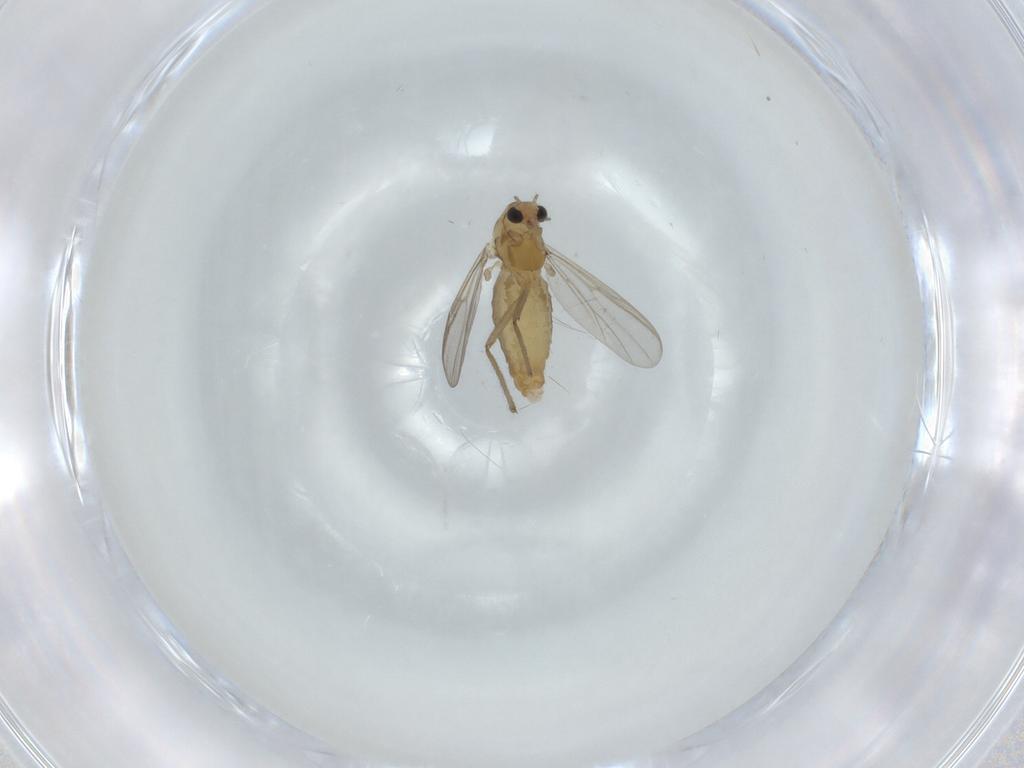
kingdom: Animalia
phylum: Arthropoda
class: Insecta
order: Diptera
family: Chironomidae
